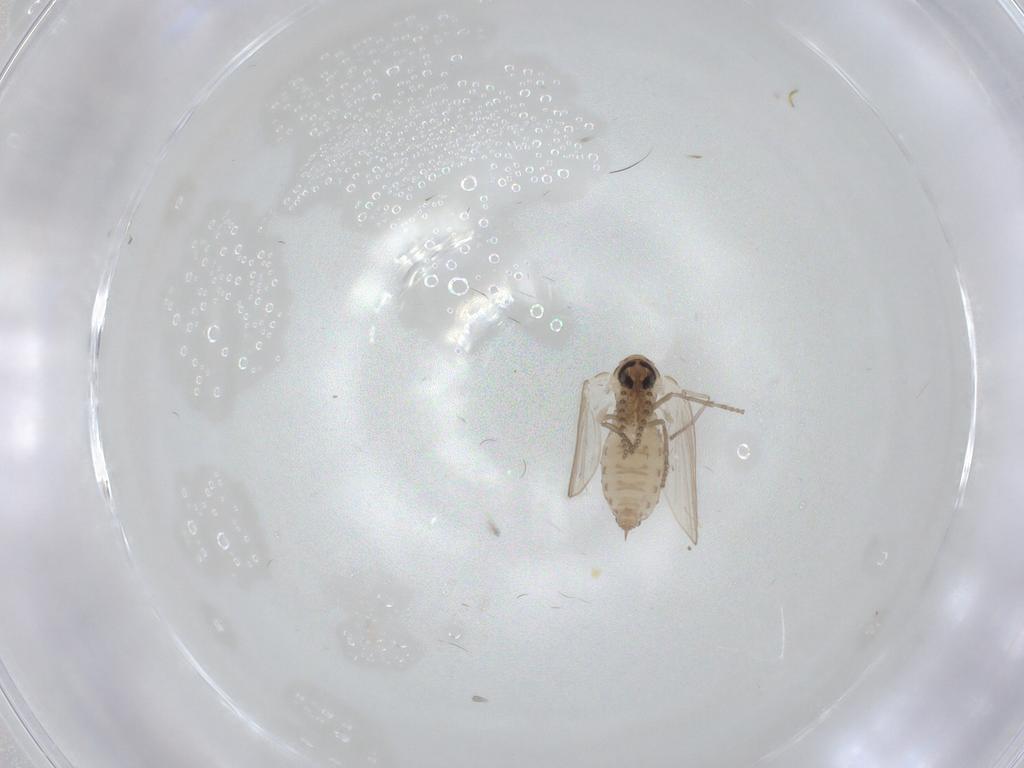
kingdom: Animalia
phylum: Arthropoda
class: Insecta
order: Diptera
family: Psychodidae
